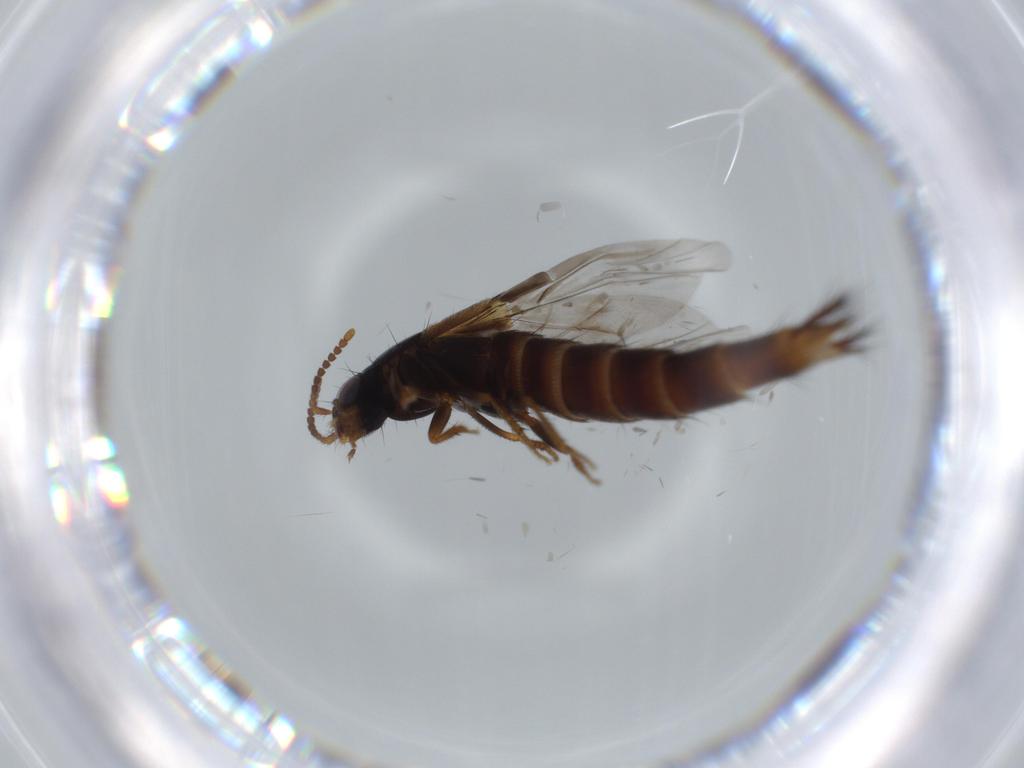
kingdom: Animalia
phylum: Arthropoda
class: Insecta
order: Coleoptera
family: Staphylinidae
